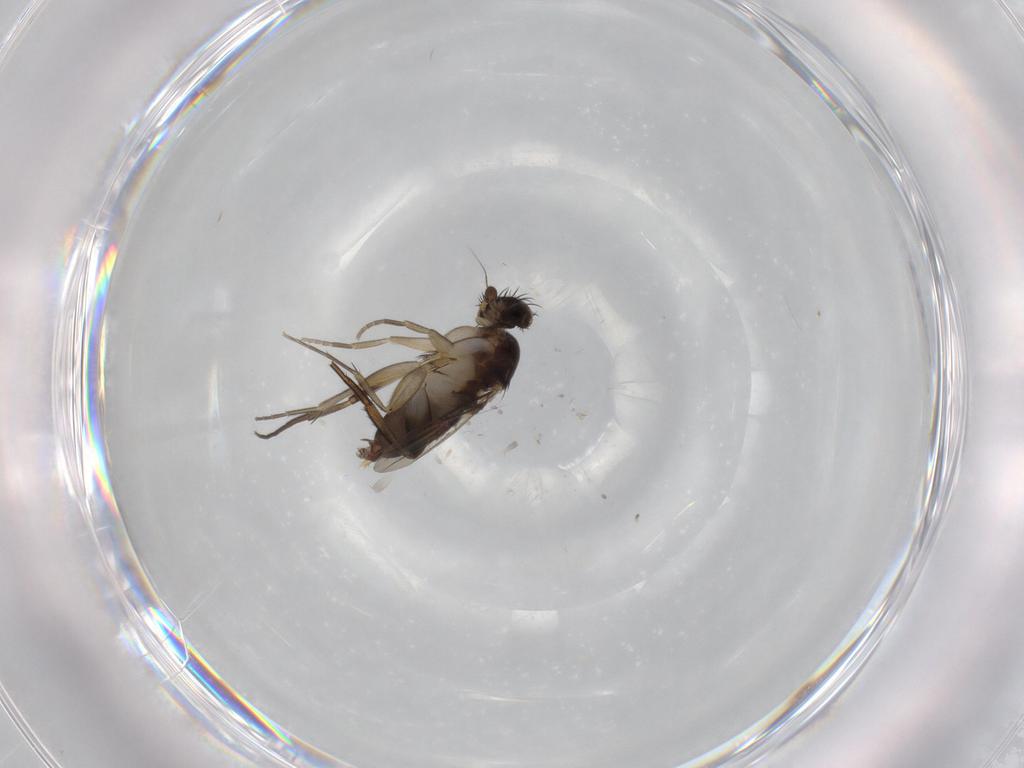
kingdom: Animalia
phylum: Arthropoda
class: Insecta
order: Diptera
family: Phoridae
